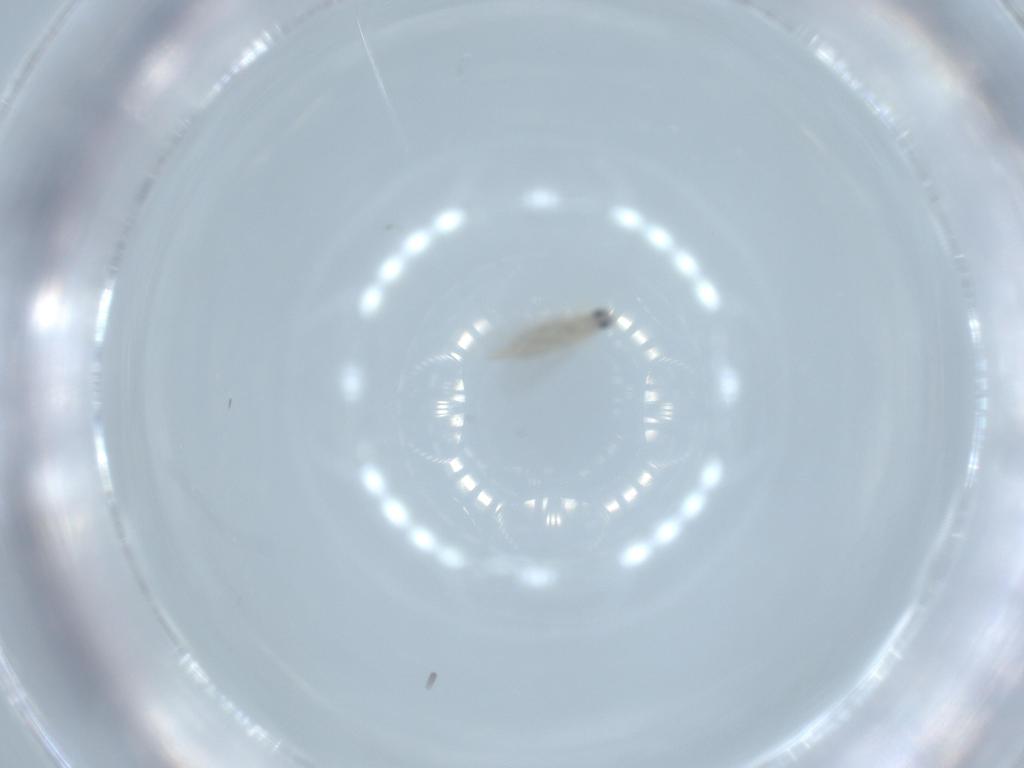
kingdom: Animalia
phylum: Arthropoda
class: Insecta
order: Diptera
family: Cecidomyiidae
